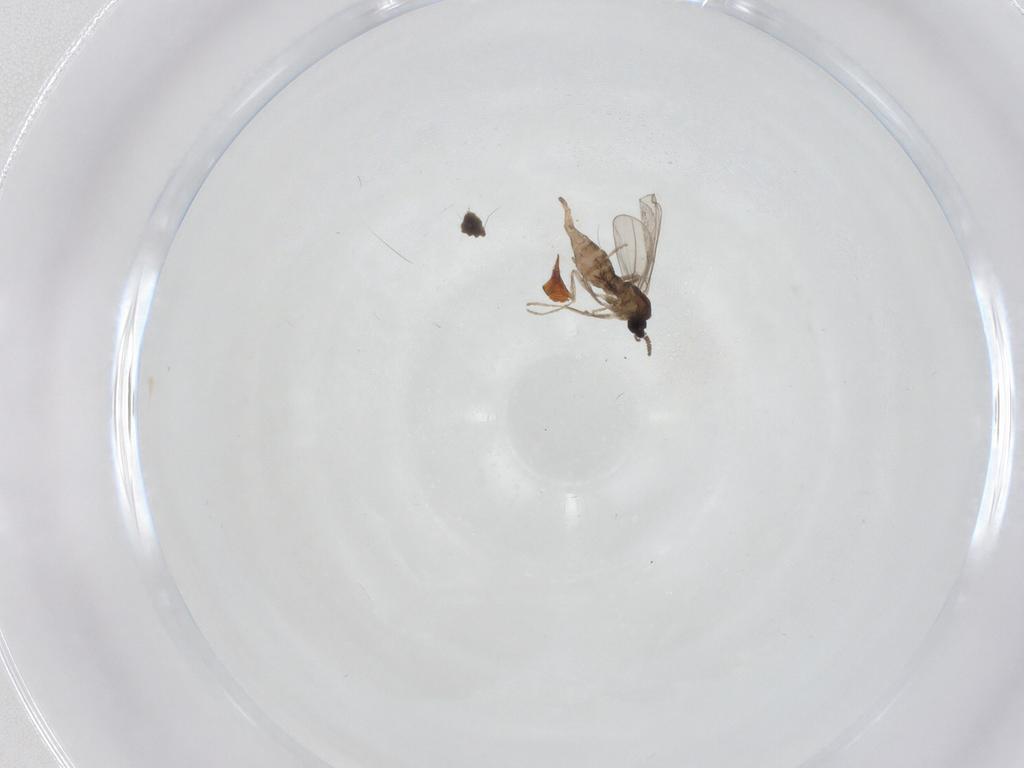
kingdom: Animalia
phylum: Arthropoda
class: Insecta
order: Diptera
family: Cecidomyiidae
